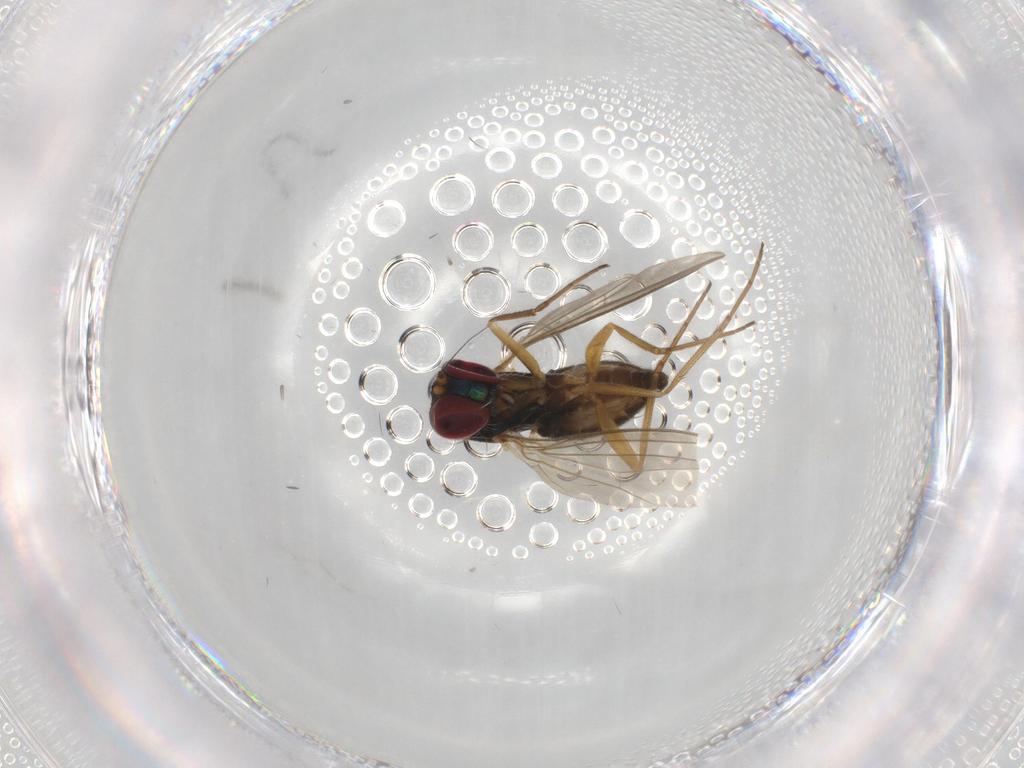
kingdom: Animalia
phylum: Arthropoda
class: Insecta
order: Diptera
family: Dolichopodidae
